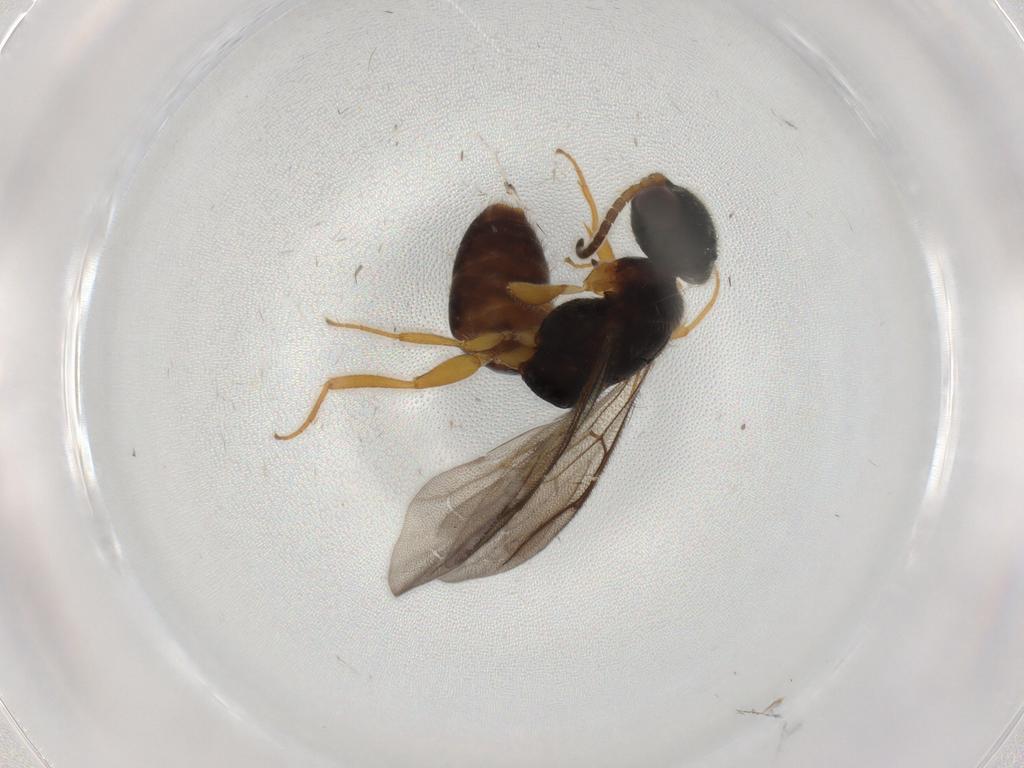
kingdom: Animalia
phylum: Arthropoda
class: Insecta
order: Hymenoptera
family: Bethylidae
